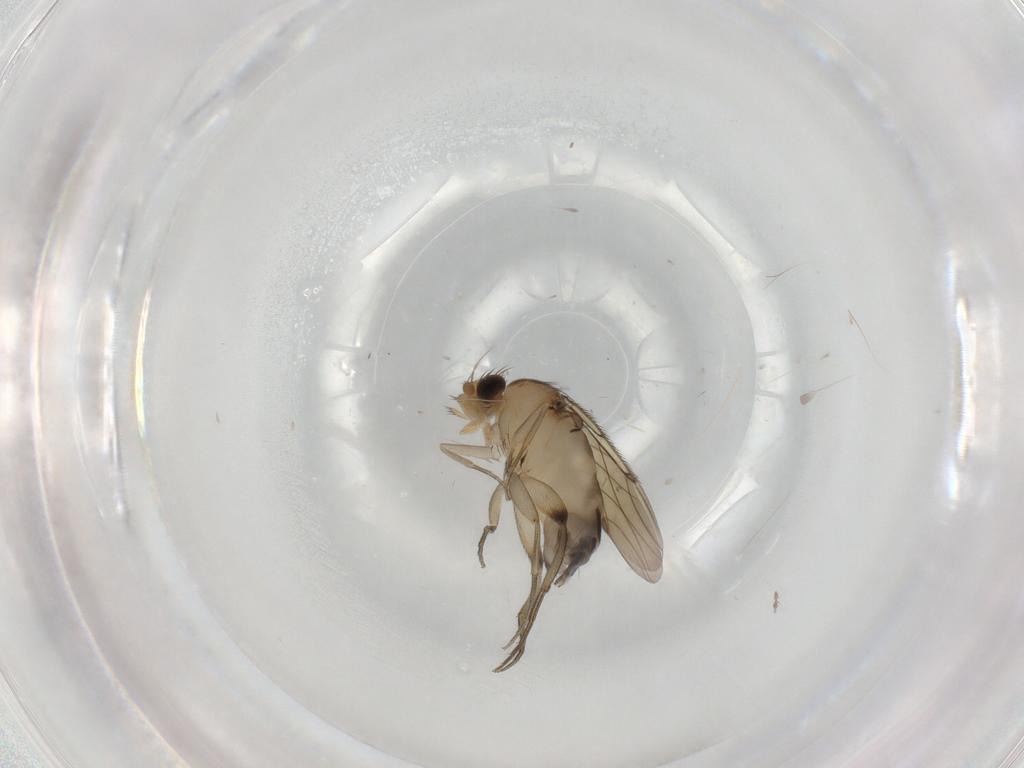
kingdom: Animalia
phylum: Arthropoda
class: Insecta
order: Diptera
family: Phoridae
